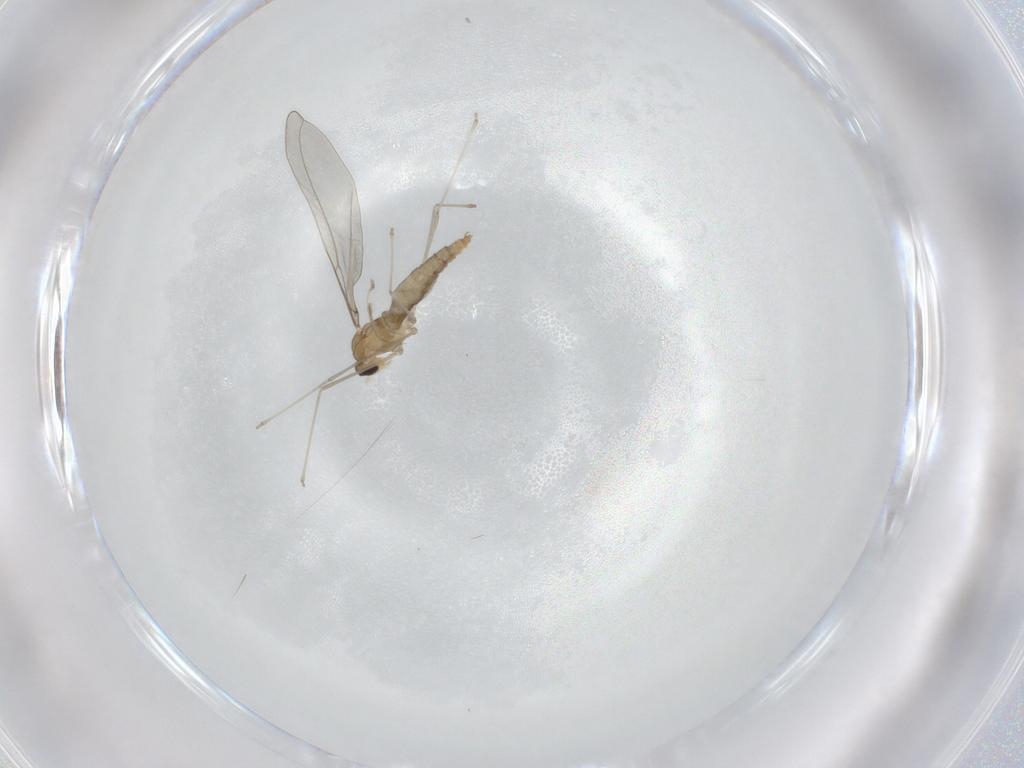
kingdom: Animalia
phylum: Arthropoda
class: Insecta
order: Diptera
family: Cecidomyiidae
